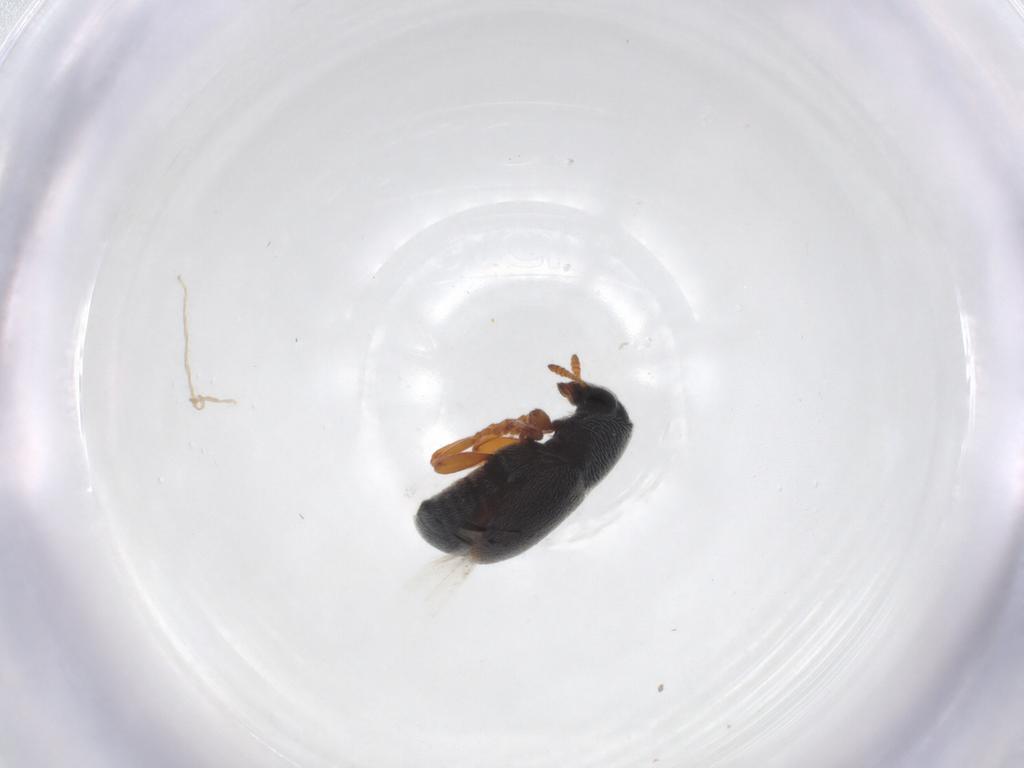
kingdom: Animalia
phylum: Arthropoda
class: Insecta
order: Coleoptera
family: Anthribidae
